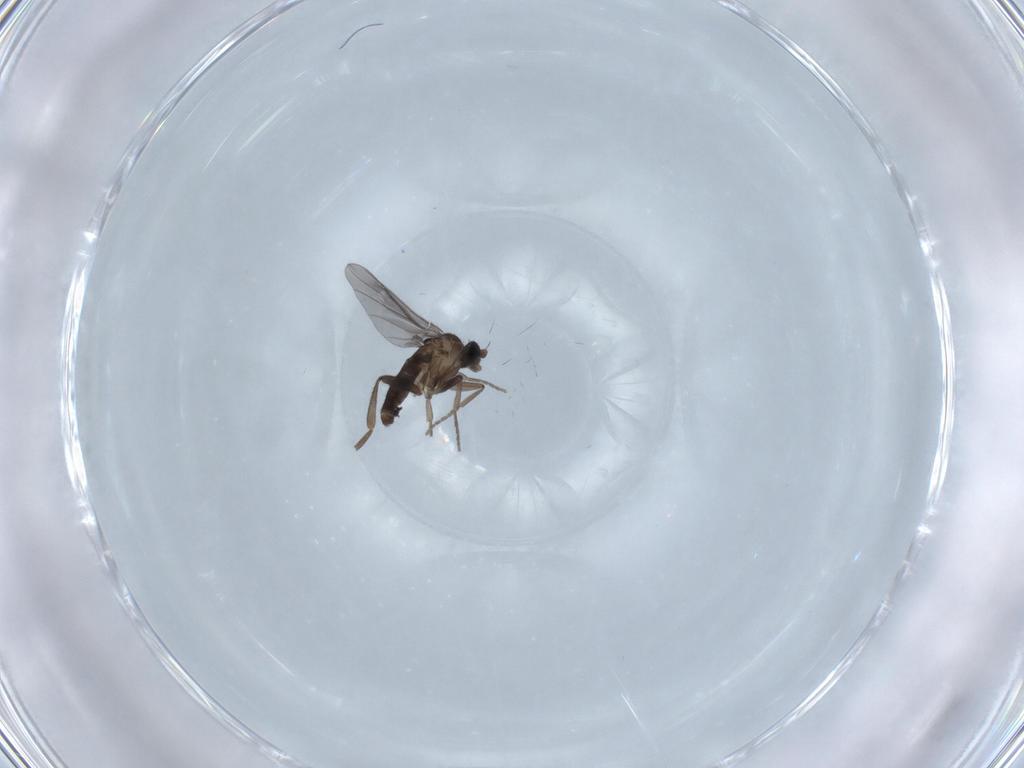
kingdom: Animalia
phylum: Arthropoda
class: Insecta
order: Diptera
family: Phoridae
